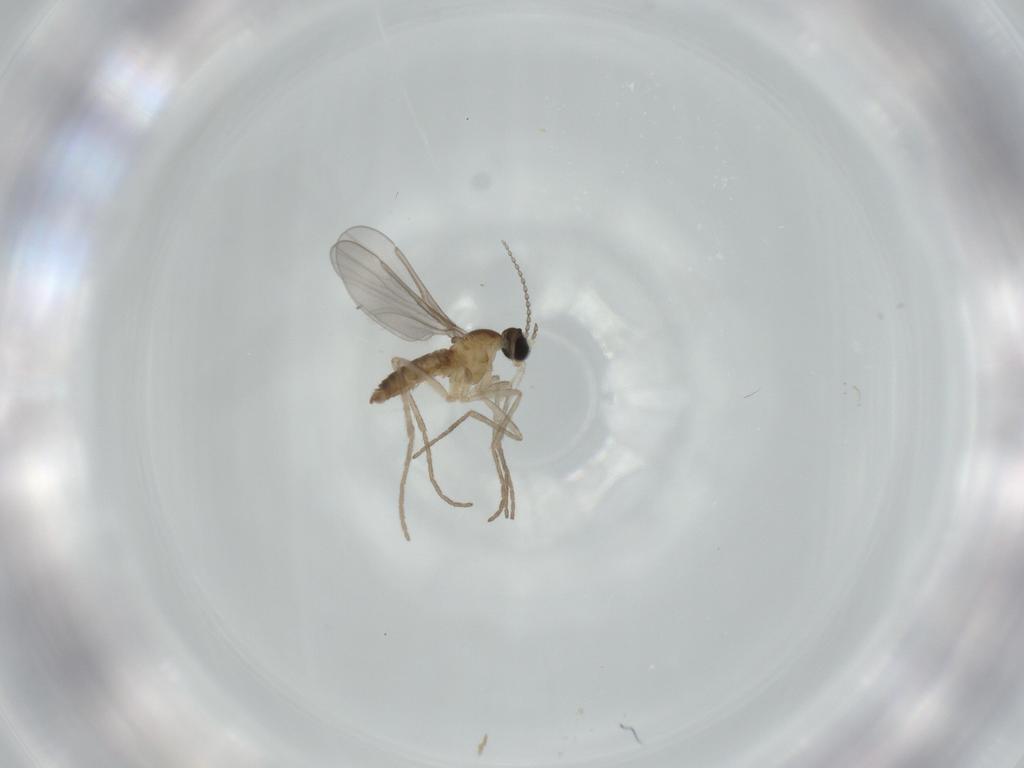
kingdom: Animalia
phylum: Arthropoda
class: Insecta
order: Diptera
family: Cecidomyiidae
